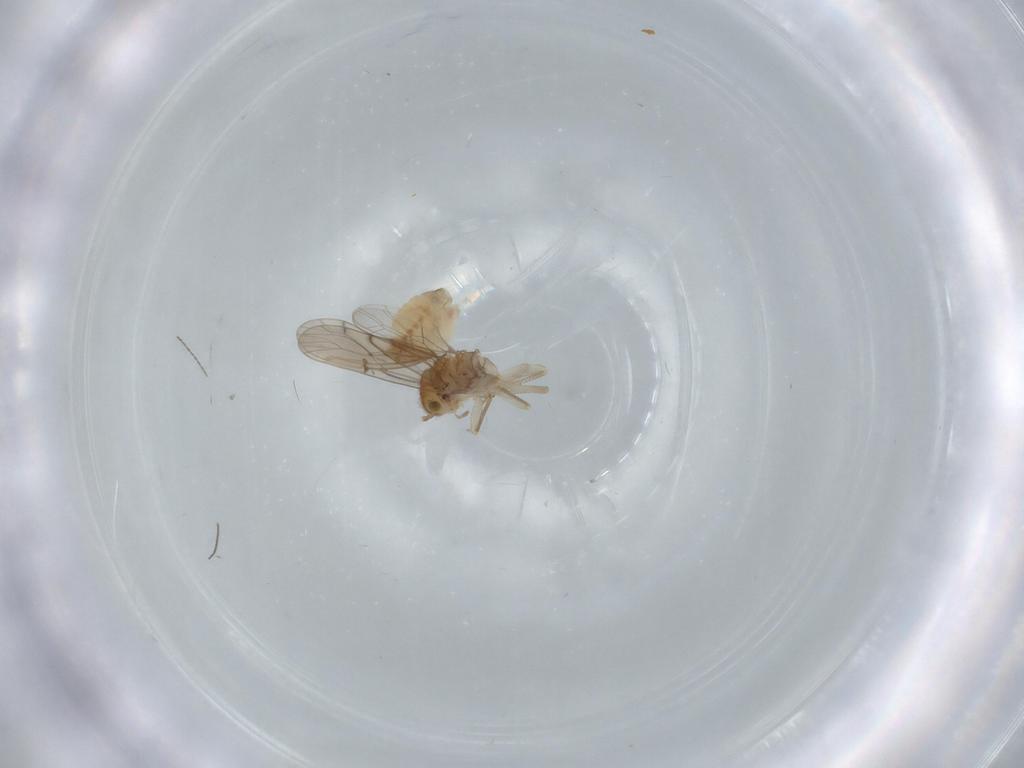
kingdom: Animalia
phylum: Arthropoda
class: Insecta
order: Psocodea
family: Ectopsocidae
